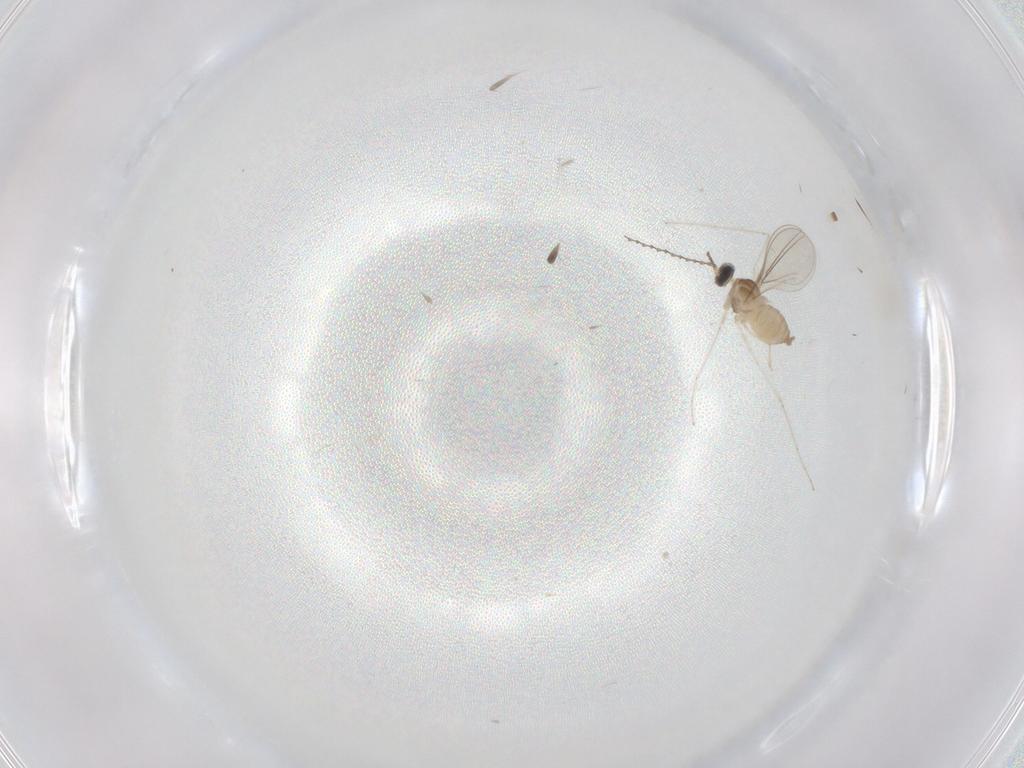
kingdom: Animalia
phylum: Arthropoda
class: Insecta
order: Diptera
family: Cecidomyiidae
